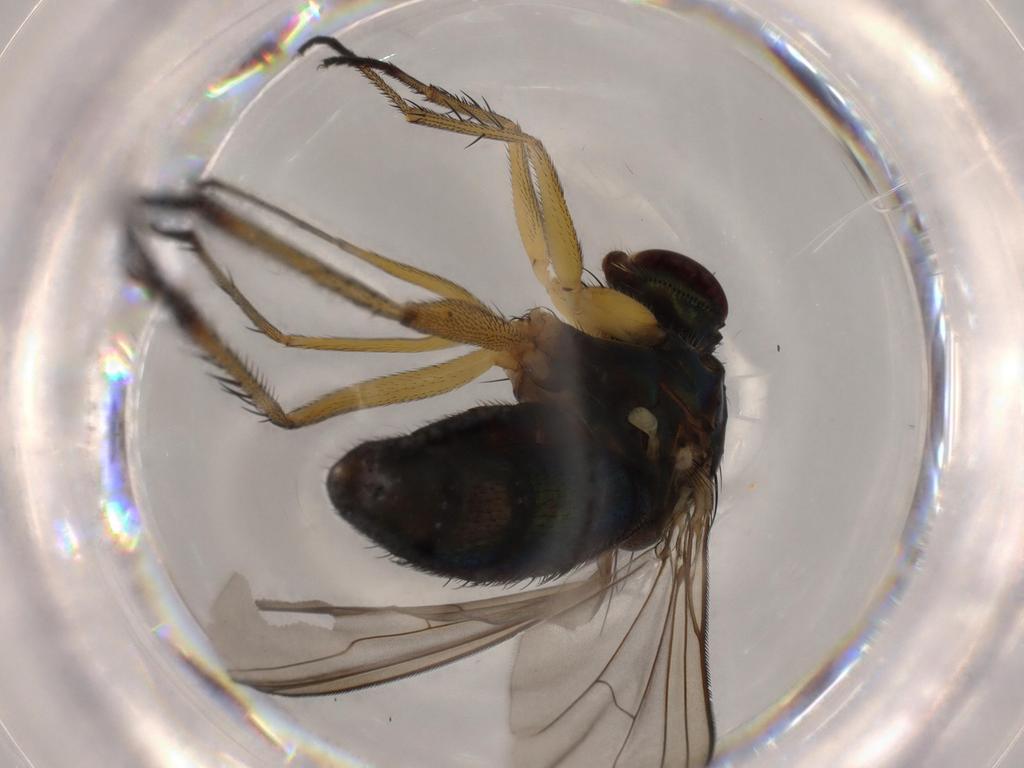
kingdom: Animalia
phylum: Arthropoda
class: Insecta
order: Diptera
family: Dolichopodidae
